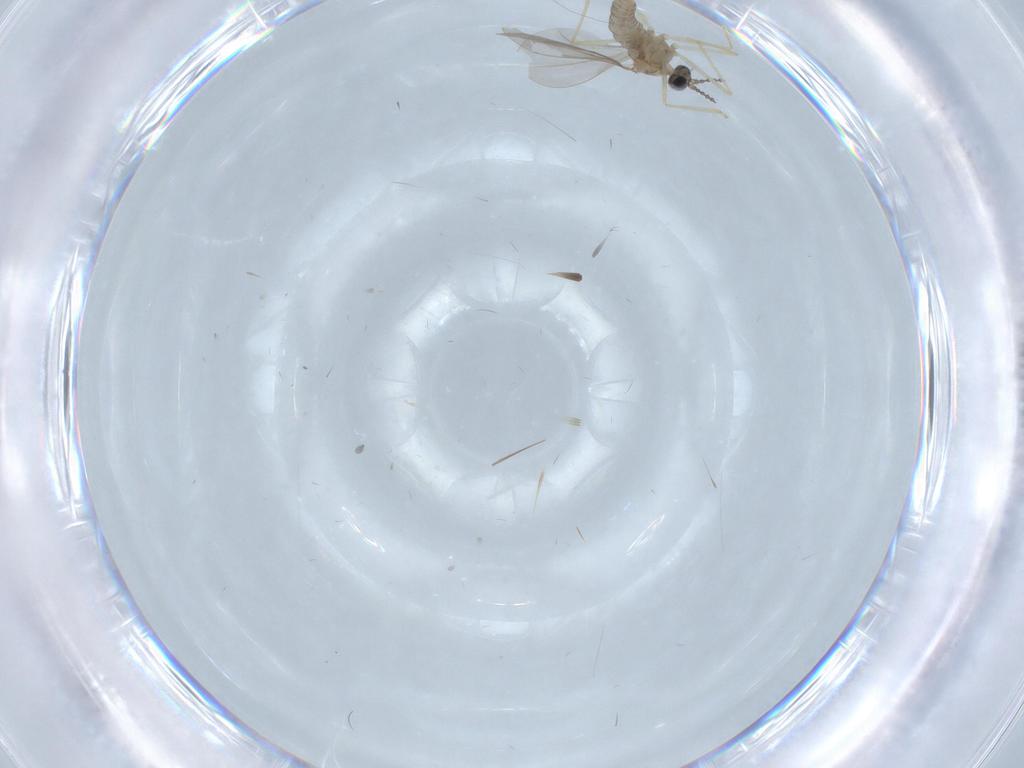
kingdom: Animalia
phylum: Arthropoda
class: Insecta
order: Diptera
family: Cecidomyiidae
